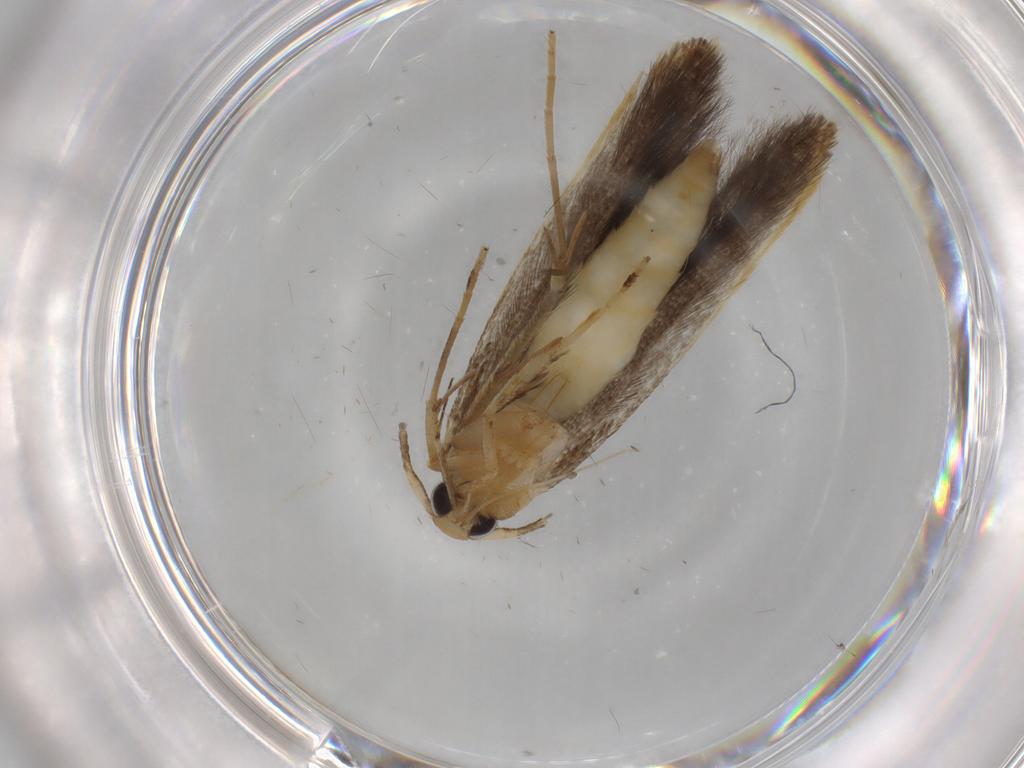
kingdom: Animalia
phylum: Arthropoda
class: Insecta
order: Lepidoptera
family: Pterolonchidae
